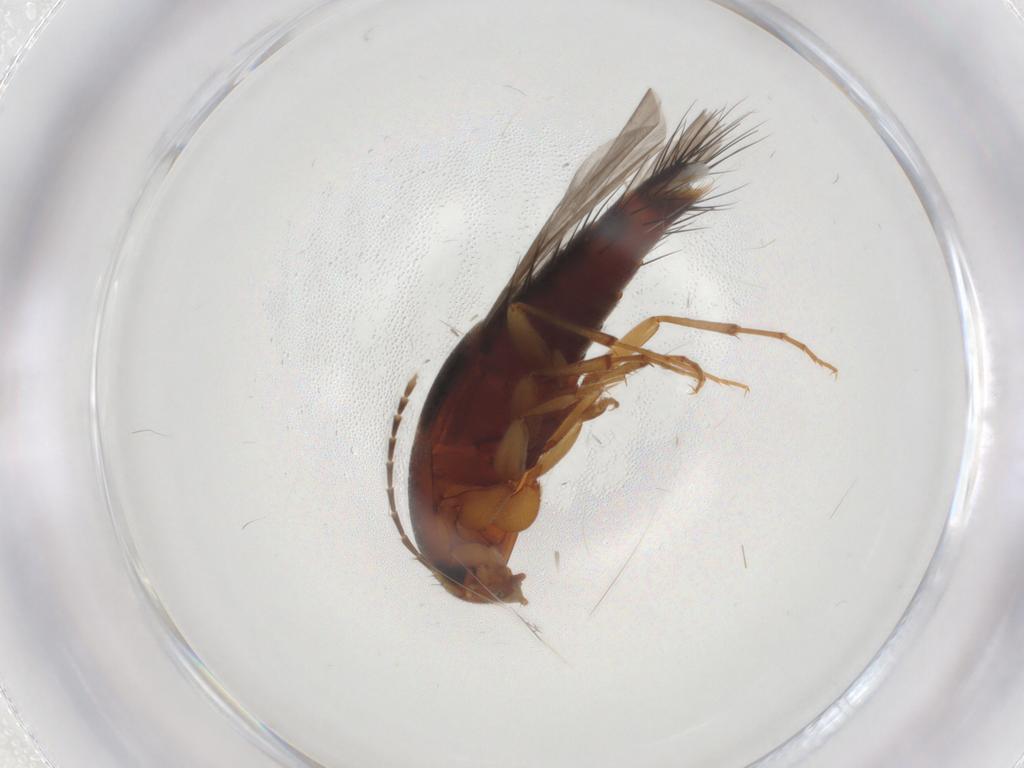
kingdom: Animalia
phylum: Arthropoda
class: Insecta
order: Coleoptera
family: Staphylinidae
